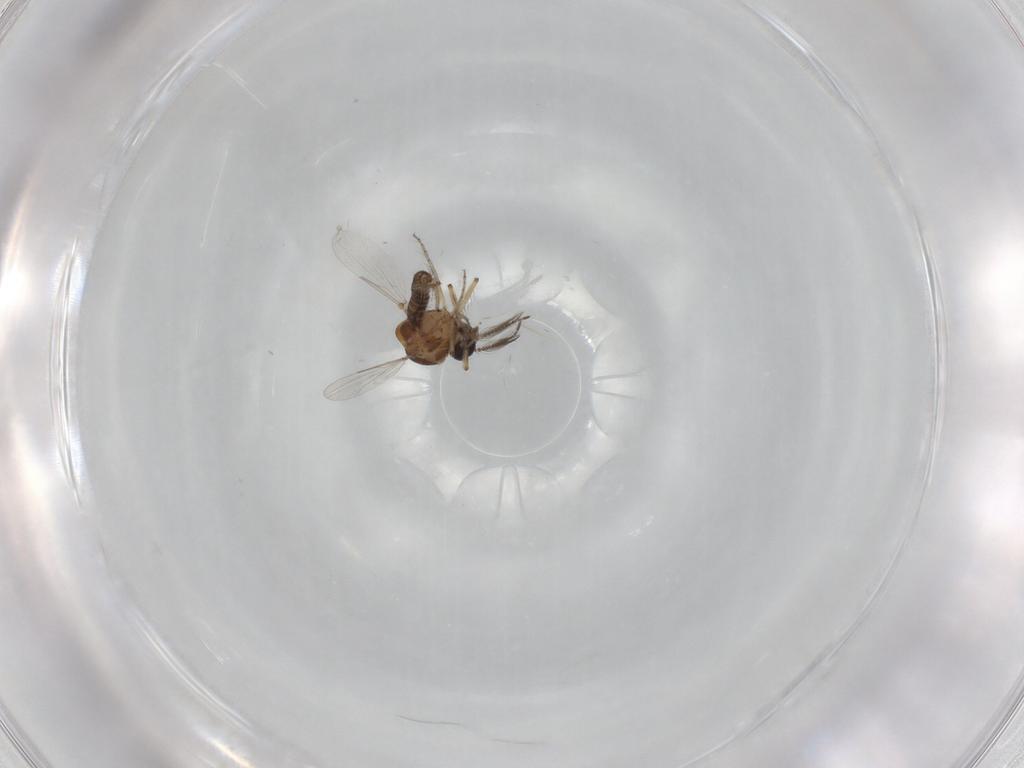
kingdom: Animalia
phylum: Arthropoda
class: Insecta
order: Diptera
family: Ceratopogonidae
